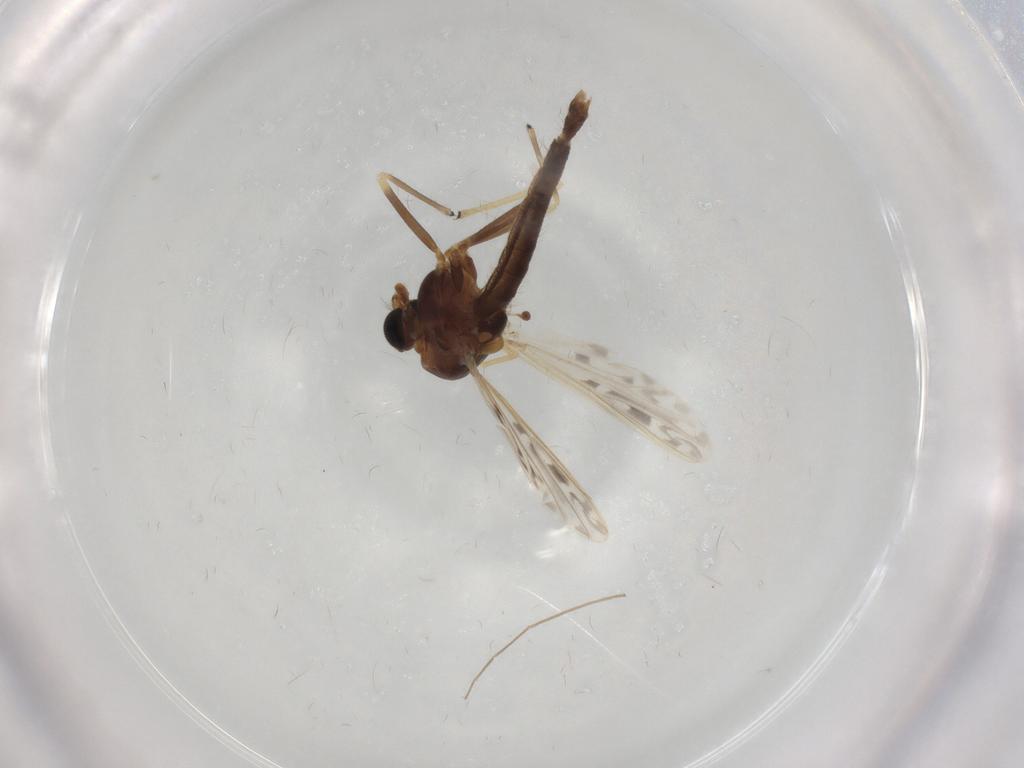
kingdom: Animalia
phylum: Arthropoda
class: Insecta
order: Diptera
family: Chironomidae
